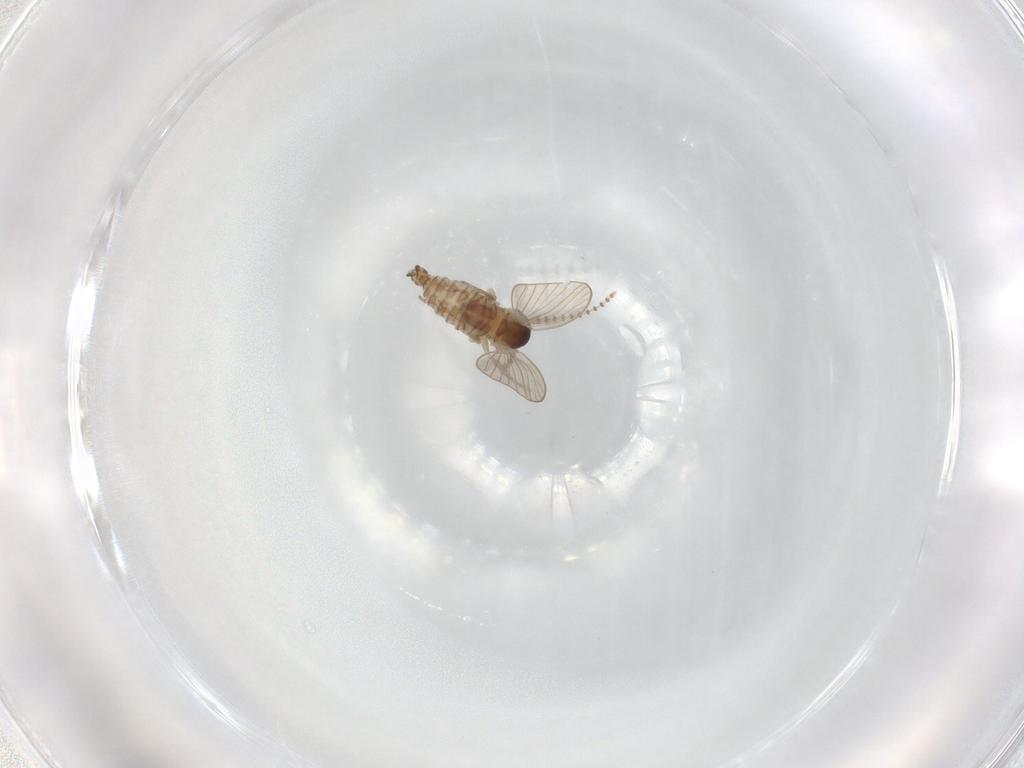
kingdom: Animalia
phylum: Arthropoda
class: Insecta
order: Diptera
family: Psychodidae
